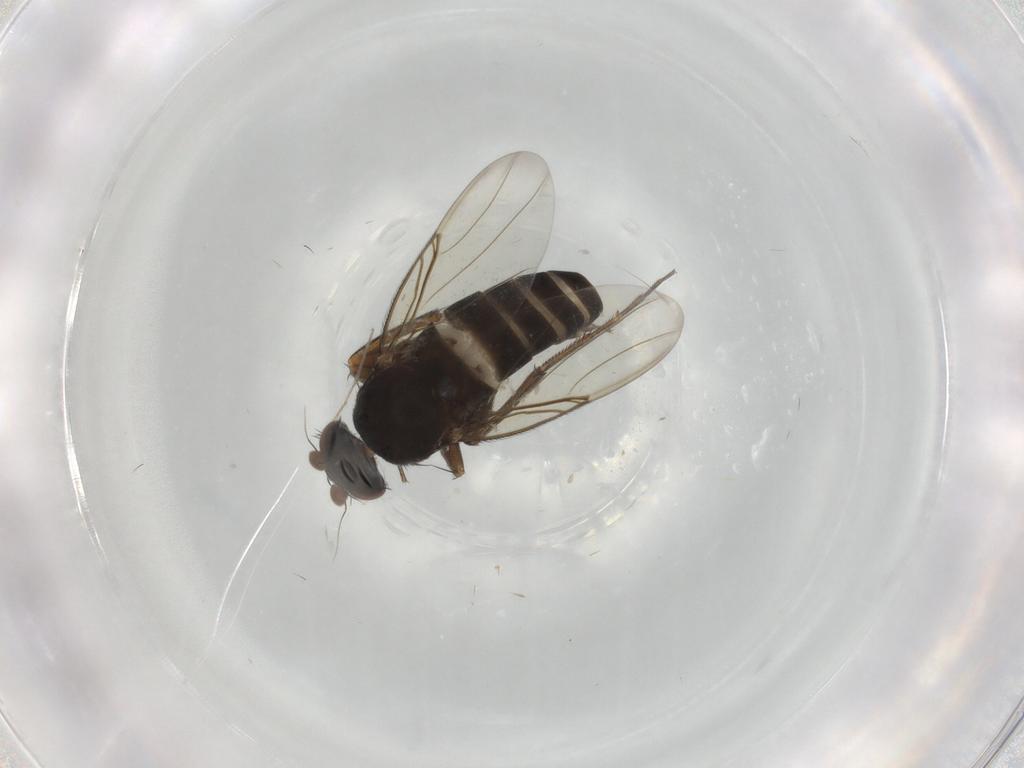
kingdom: Animalia
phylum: Arthropoda
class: Insecta
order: Diptera
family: Phoridae
